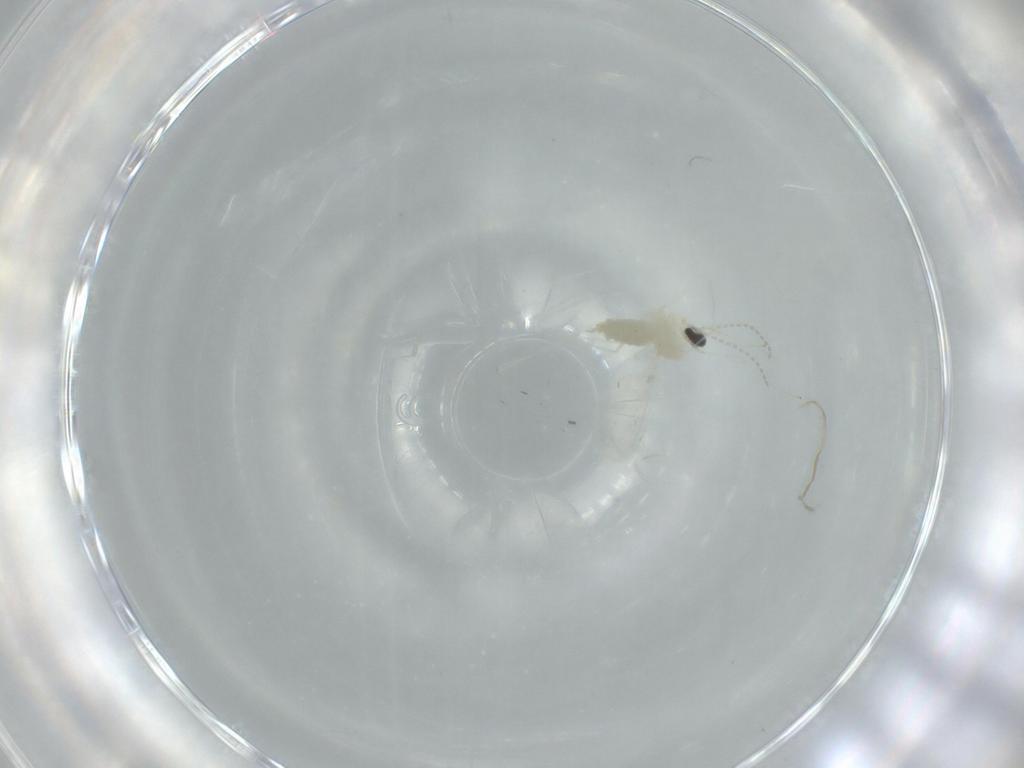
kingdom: Animalia
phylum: Arthropoda
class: Insecta
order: Diptera
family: Cecidomyiidae
